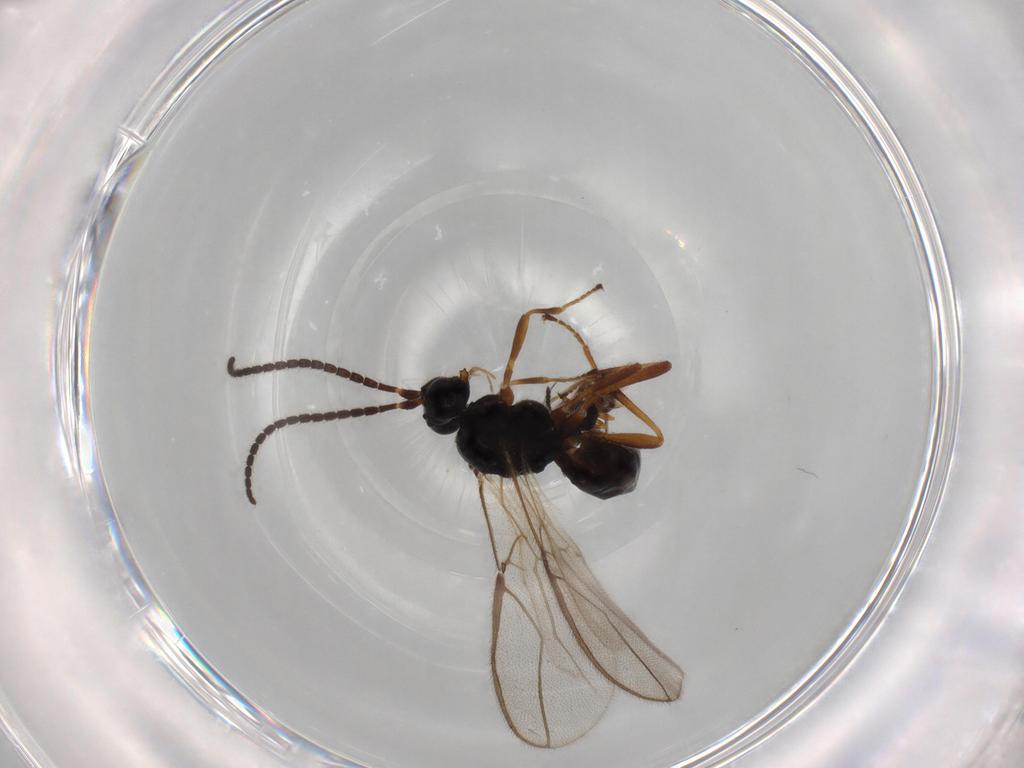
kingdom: Animalia
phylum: Arthropoda
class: Insecta
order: Hymenoptera
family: Braconidae
